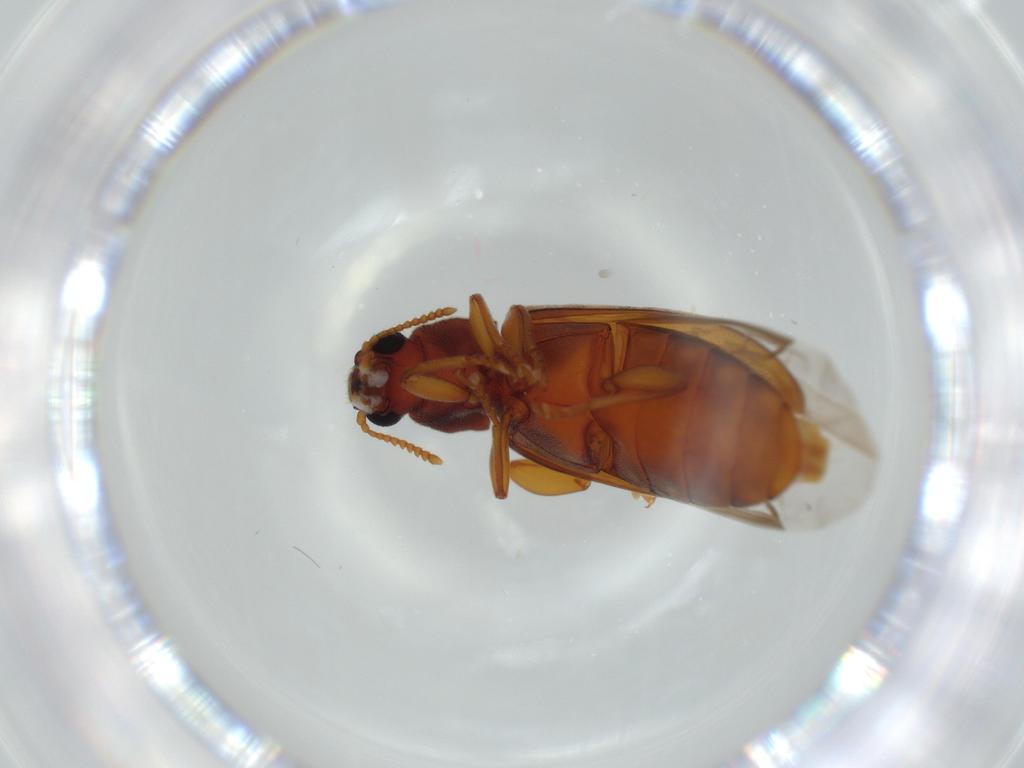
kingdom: Animalia
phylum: Arthropoda
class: Insecta
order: Coleoptera
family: Mycteridae
